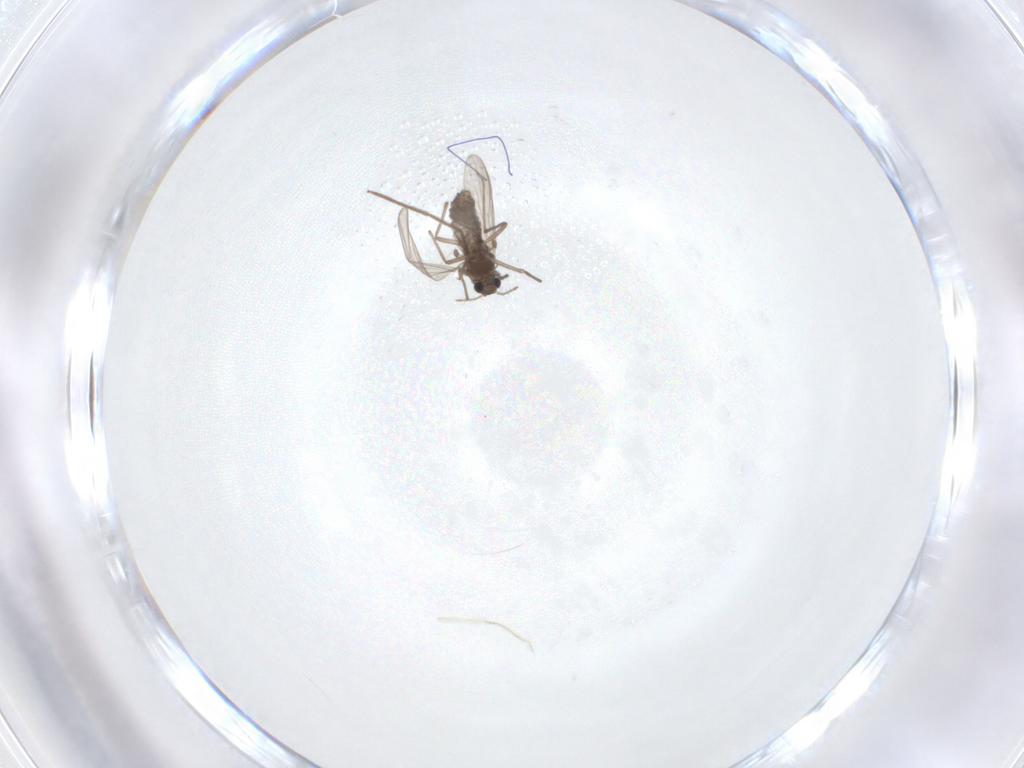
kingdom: Animalia
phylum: Arthropoda
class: Insecta
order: Diptera
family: Chironomidae
